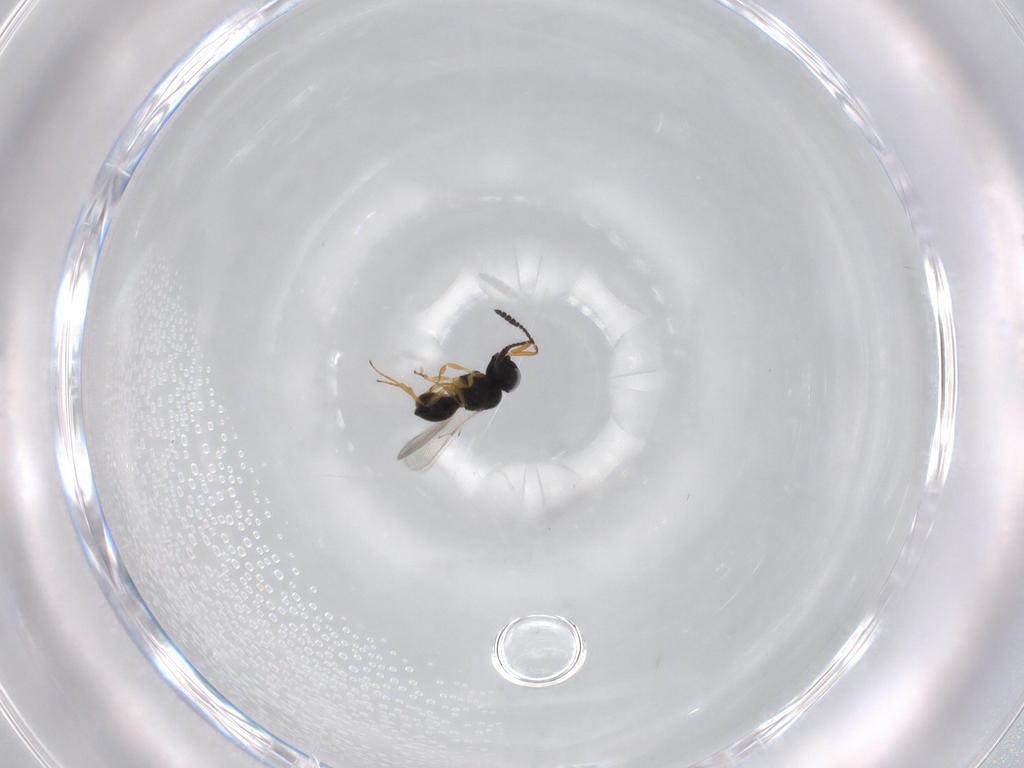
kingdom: Animalia
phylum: Arthropoda
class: Insecta
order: Hymenoptera
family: Scelionidae
